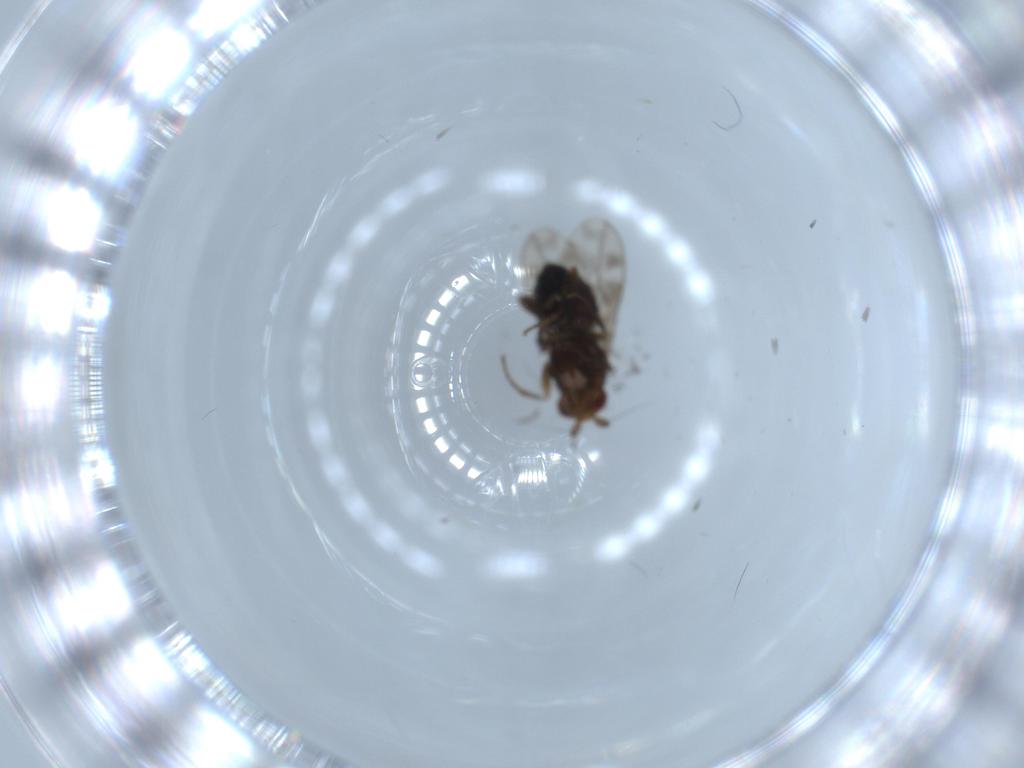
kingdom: Animalia
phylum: Arthropoda
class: Insecta
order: Diptera
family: Sphaeroceridae
